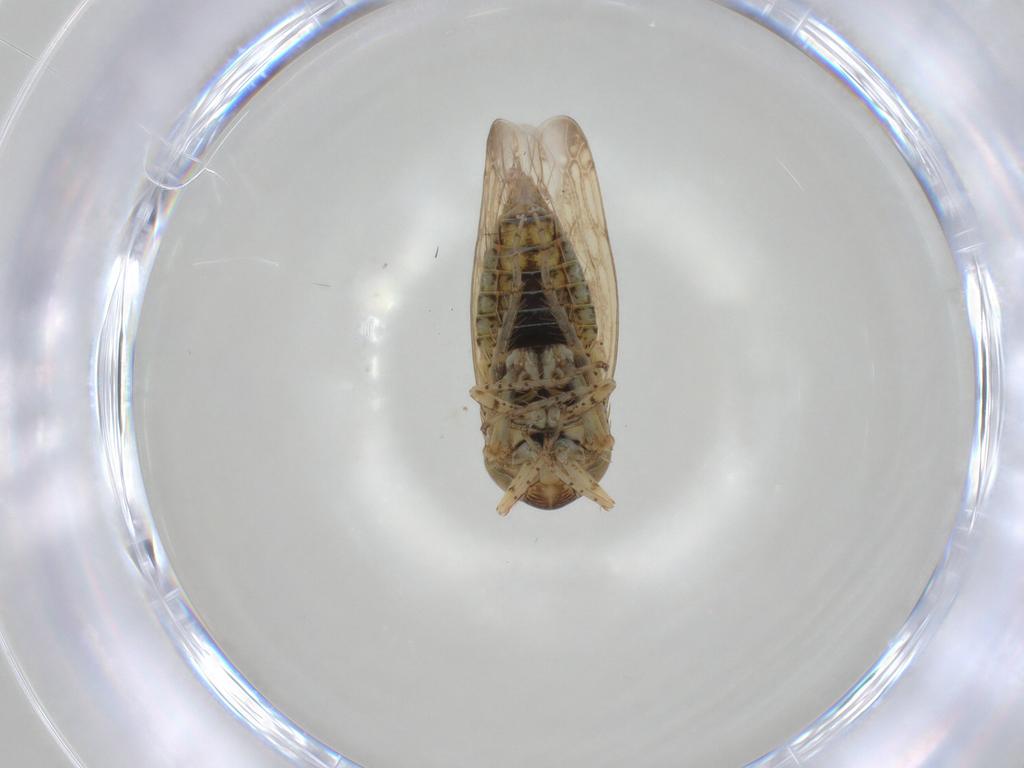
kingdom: Animalia
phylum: Arthropoda
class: Insecta
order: Hemiptera
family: Cicadellidae
